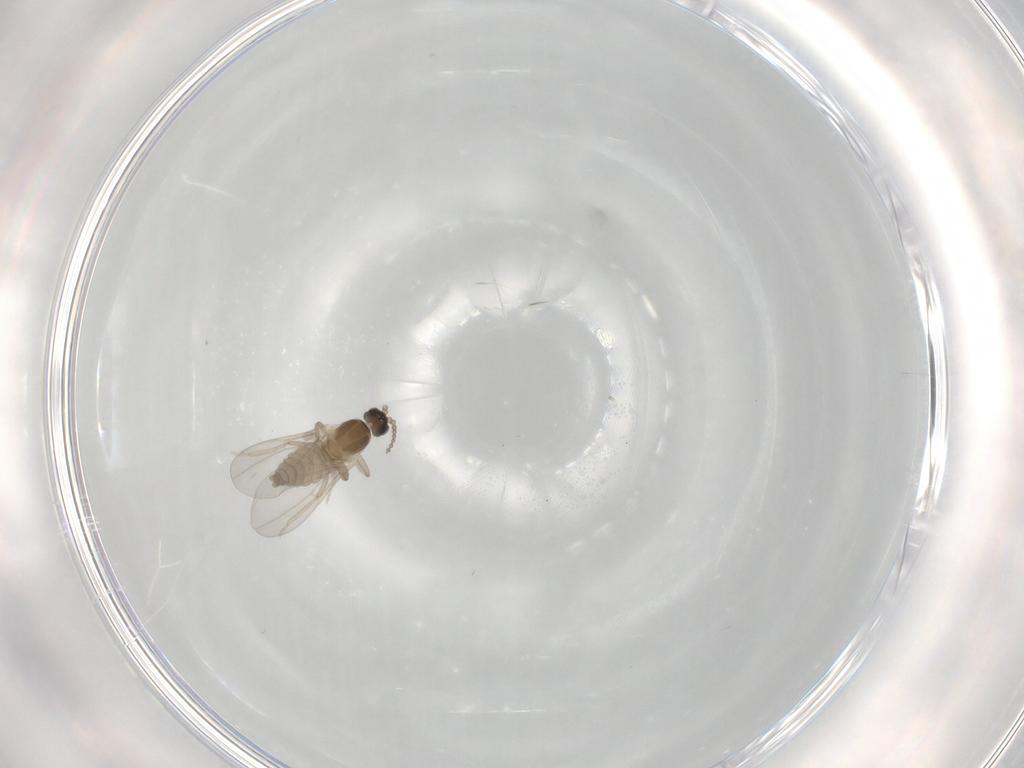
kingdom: Animalia
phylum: Arthropoda
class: Insecta
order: Diptera
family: Cecidomyiidae
